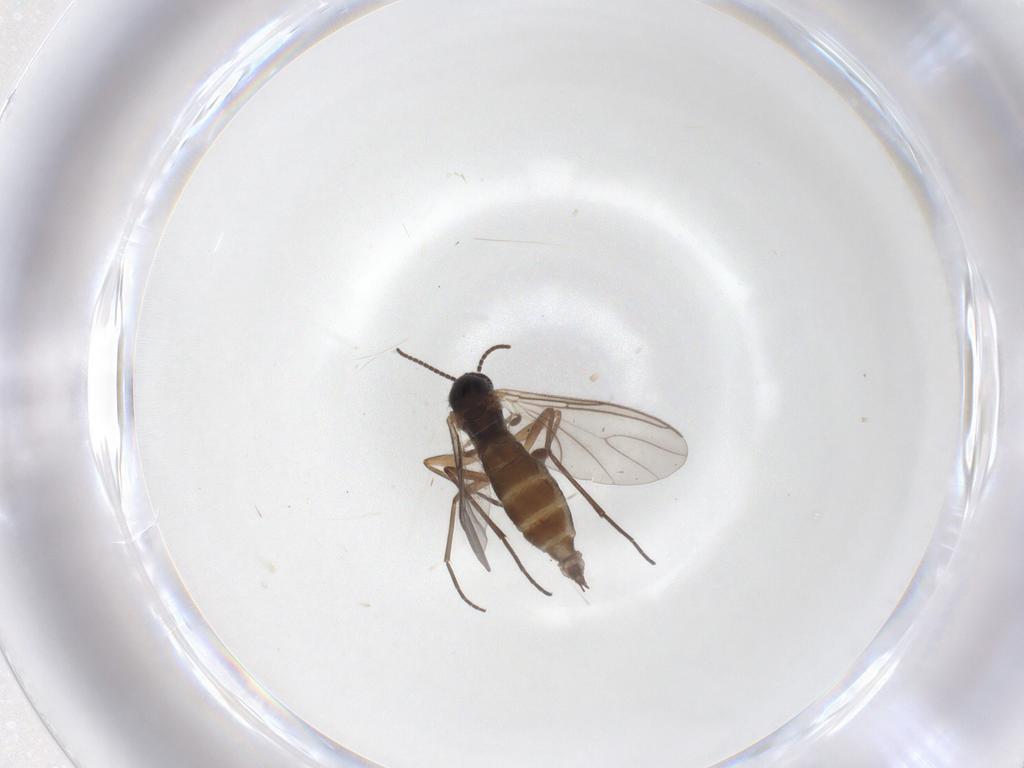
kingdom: Animalia
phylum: Arthropoda
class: Insecta
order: Diptera
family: Sciaridae
